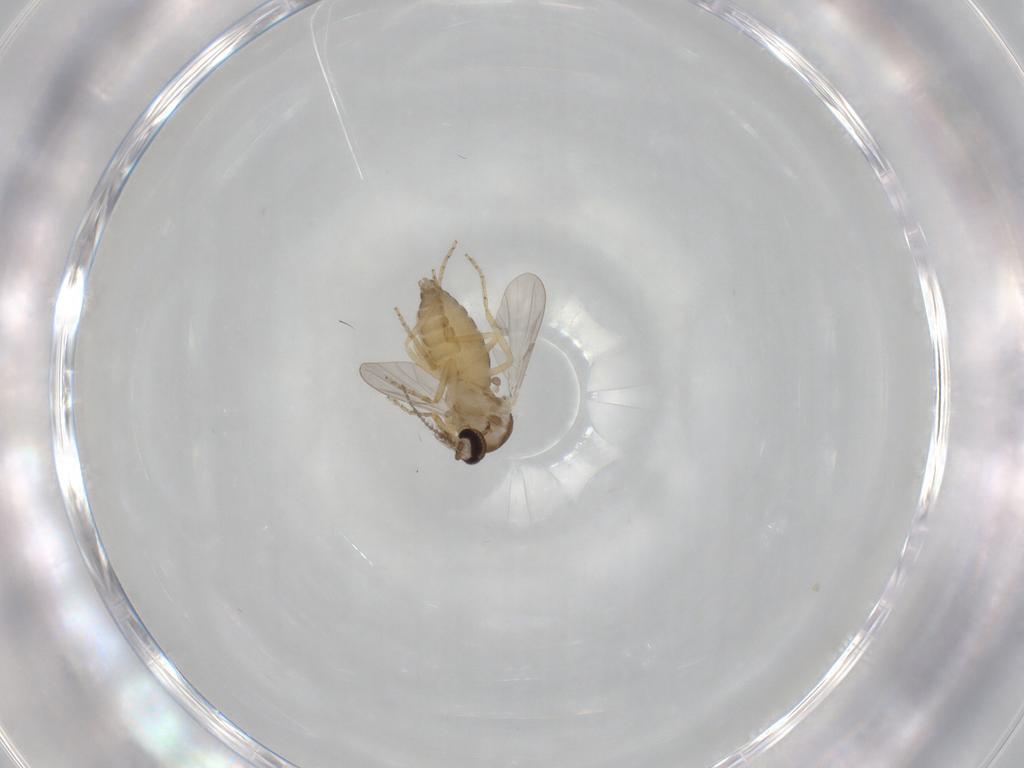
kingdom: Animalia
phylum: Arthropoda
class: Insecta
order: Diptera
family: Ceratopogonidae
